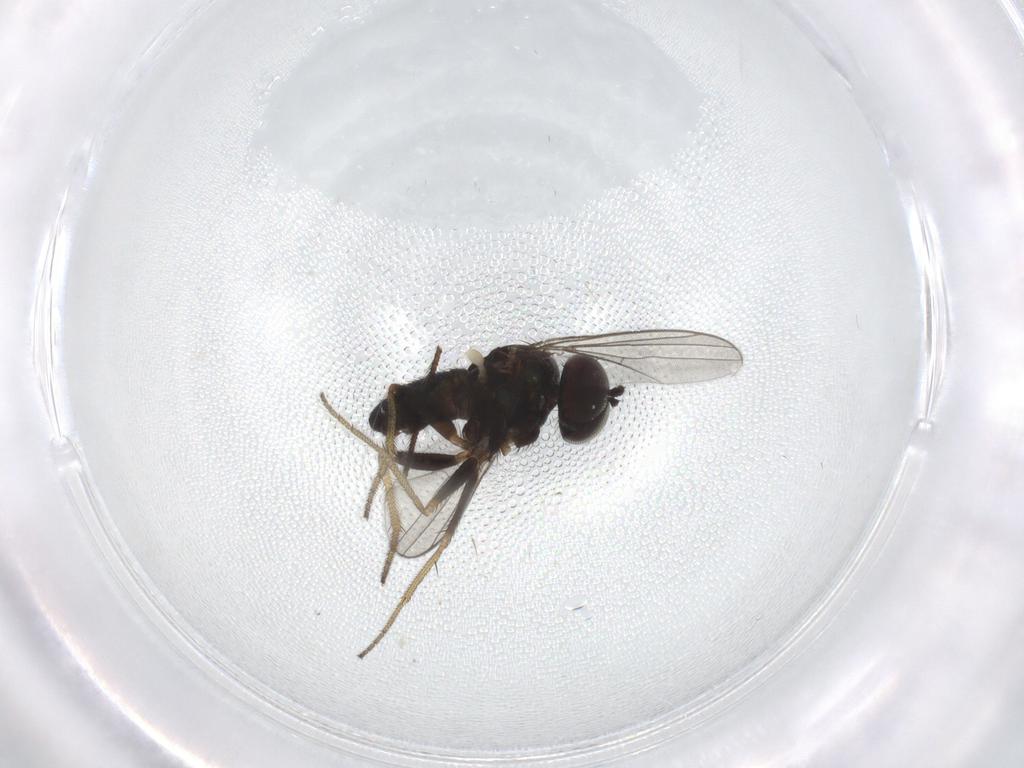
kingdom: Animalia
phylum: Arthropoda
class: Insecta
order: Diptera
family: Limoniidae
